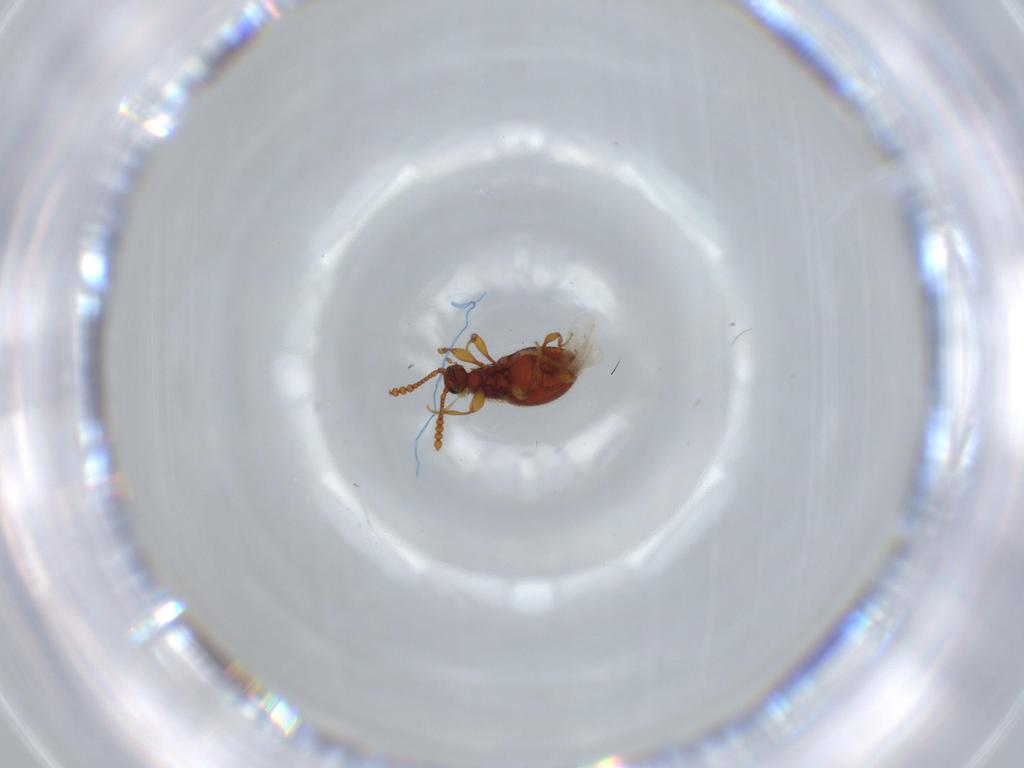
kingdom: Animalia
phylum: Arthropoda
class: Insecta
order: Coleoptera
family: Staphylinidae
